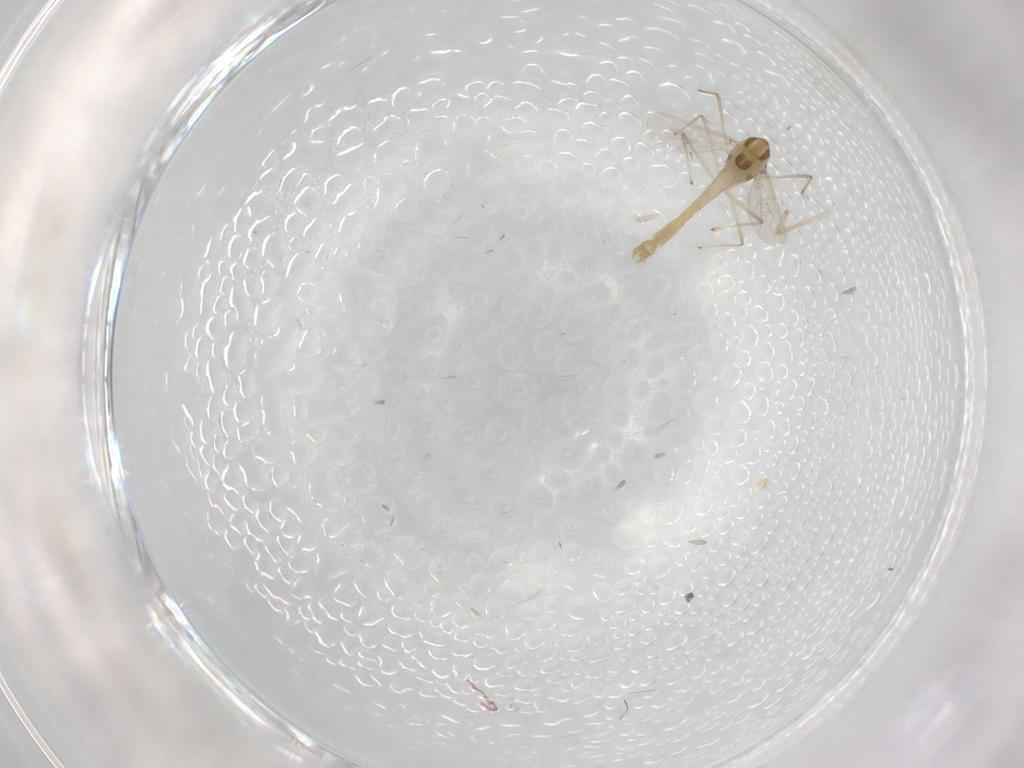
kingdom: Animalia
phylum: Arthropoda
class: Insecta
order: Diptera
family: Chironomidae
